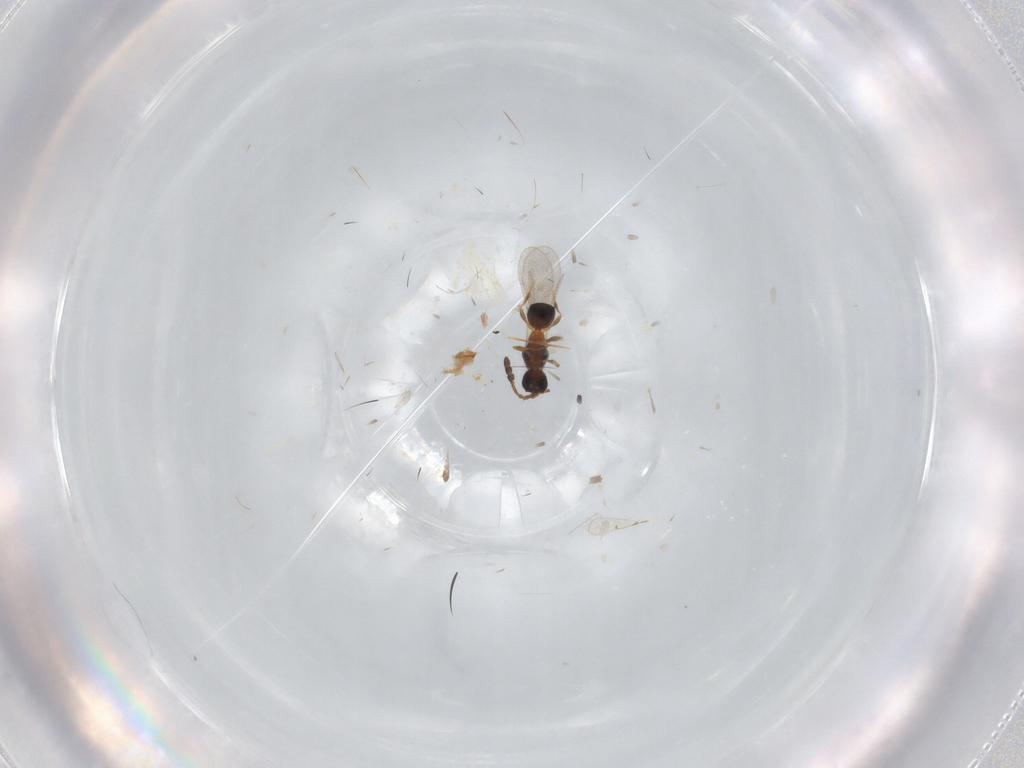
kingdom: Animalia
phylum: Arthropoda
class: Insecta
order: Hymenoptera
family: Diapriidae
